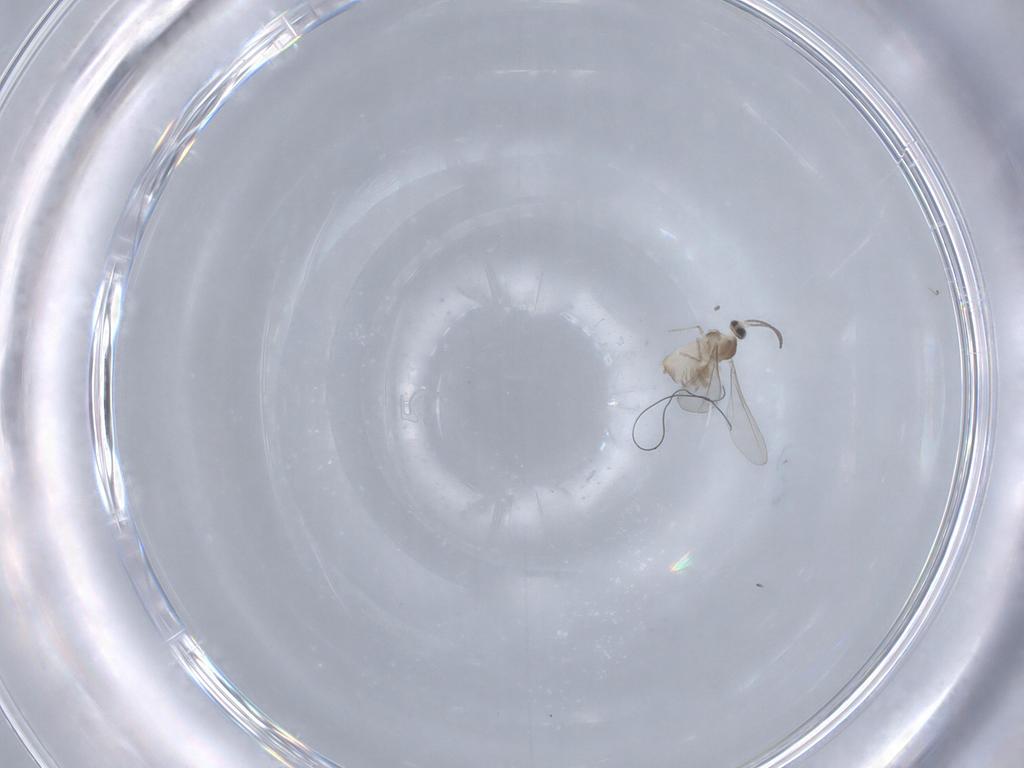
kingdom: Animalia
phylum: Arthropoda
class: Insecta
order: Diptera
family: Cecidomyiidae
